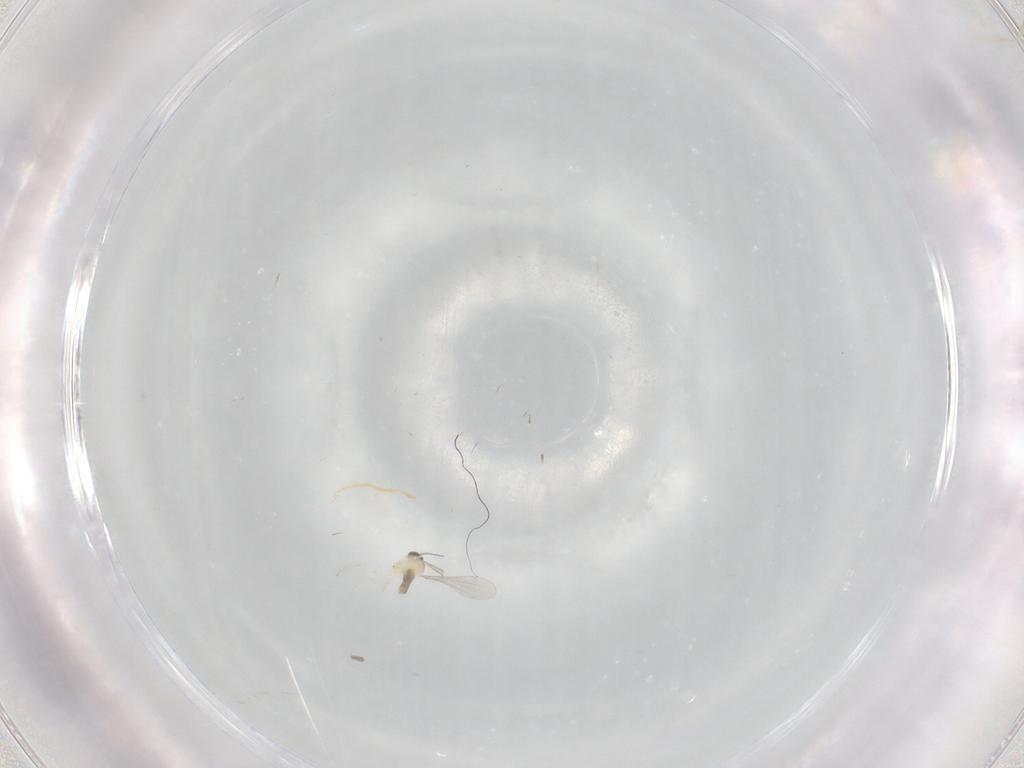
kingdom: Animalia
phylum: Arthropoda
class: Insecta
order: Diptera
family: Cecidomyiidae
